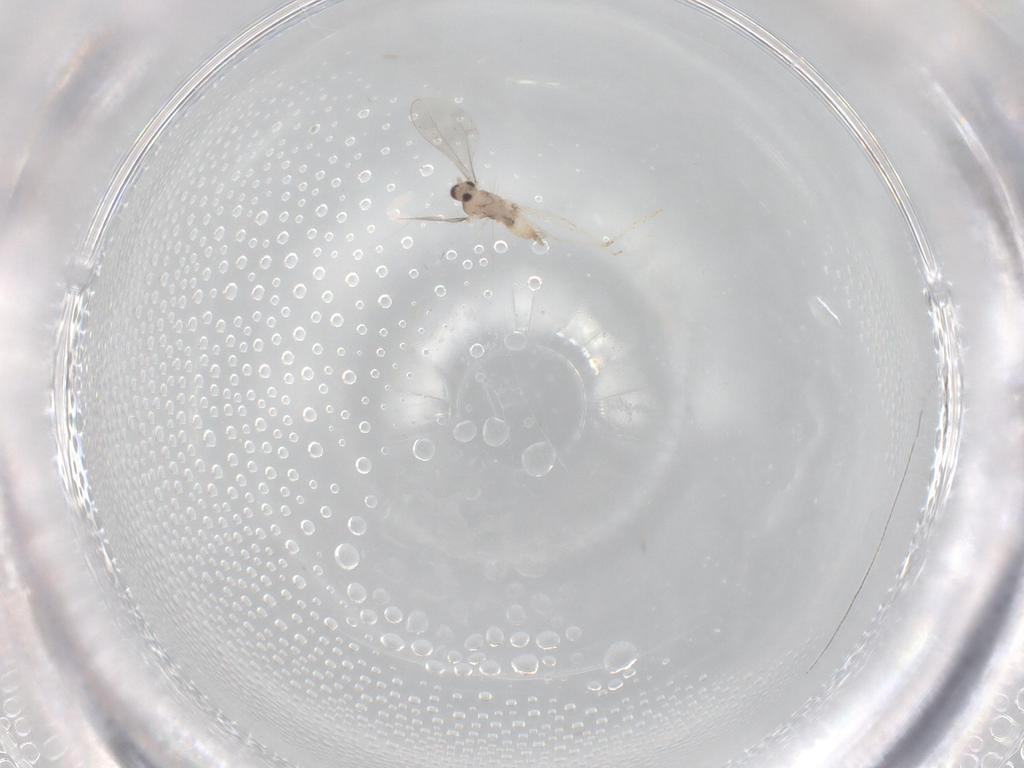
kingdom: Animalia
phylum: Arthropoda
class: Insecta
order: Diptera
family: Cecidomyiidae
